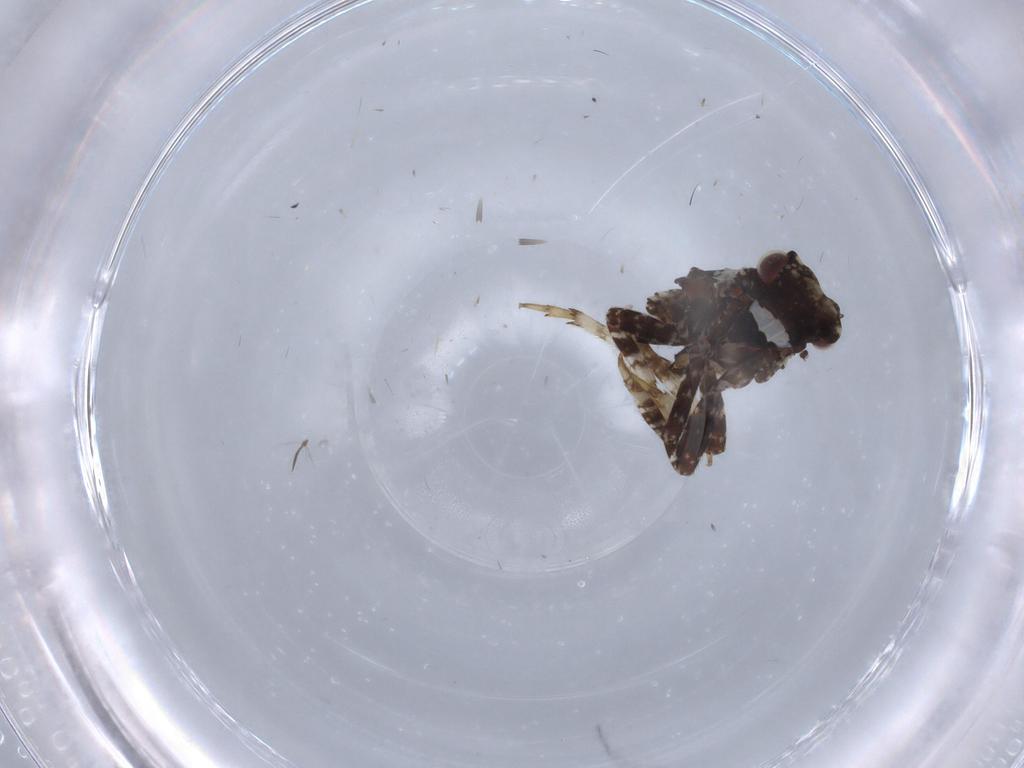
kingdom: Animalia
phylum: Arthropoda
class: Insecta
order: Hemiptera
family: Fulgoridae
